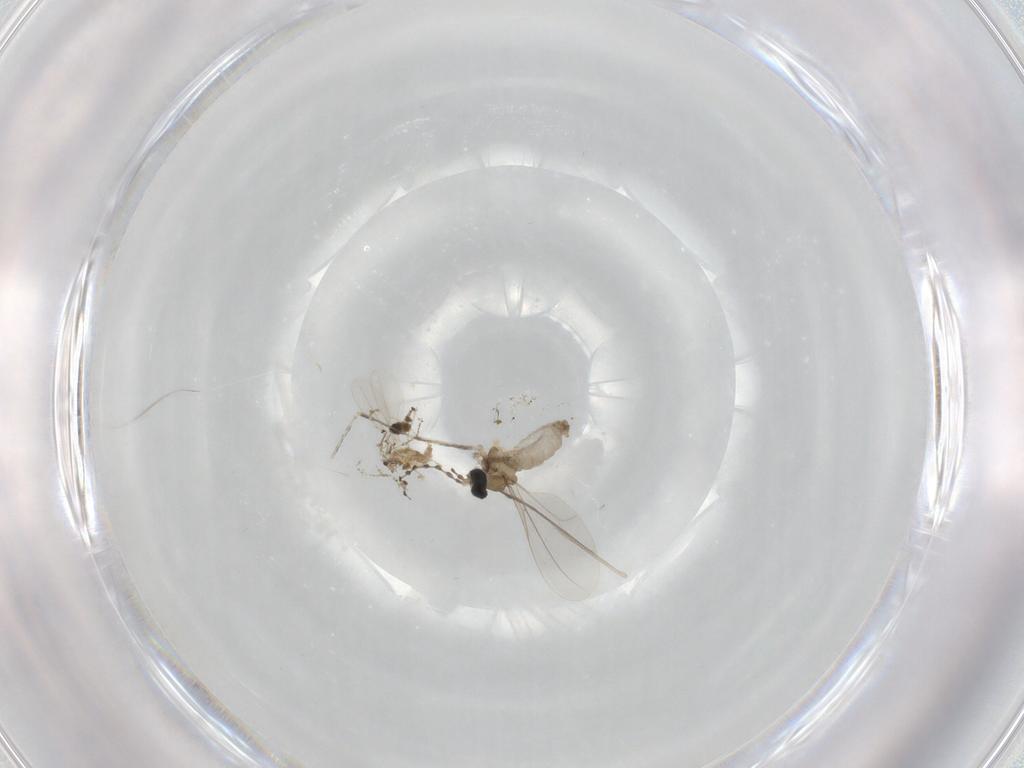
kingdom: Animalia
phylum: Arthropoda
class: Insecta
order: Diptera
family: Cecidomyiidae
